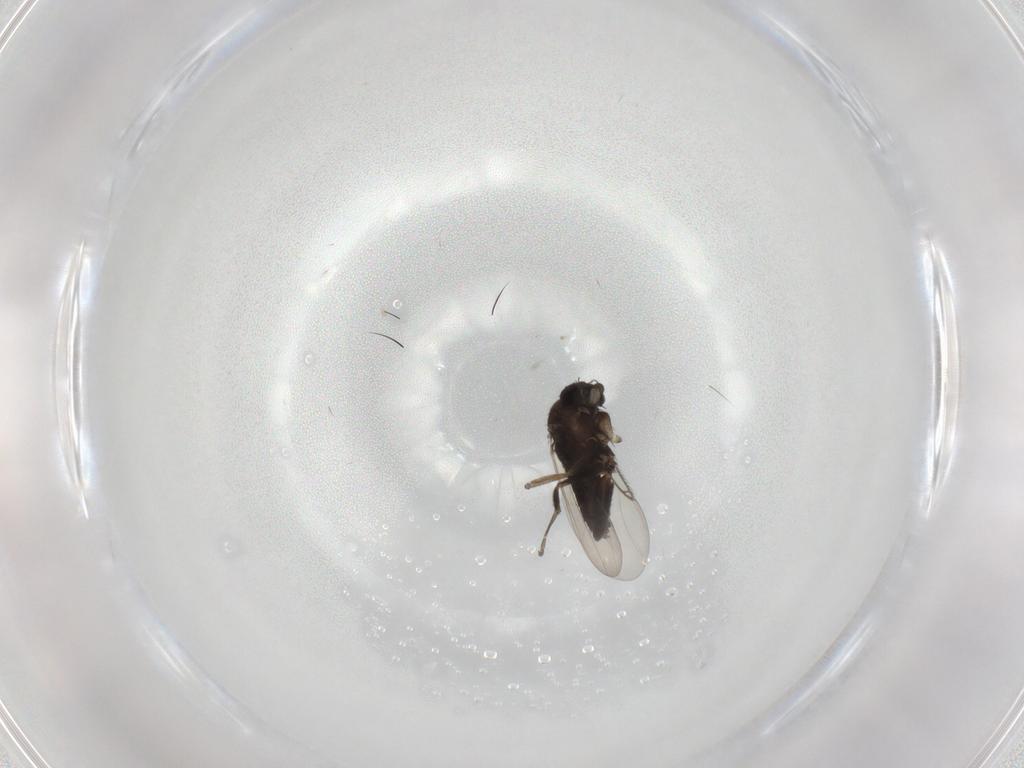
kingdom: Animalia
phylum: Arthropoda
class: Insecta
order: Diptera
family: Phoridae
